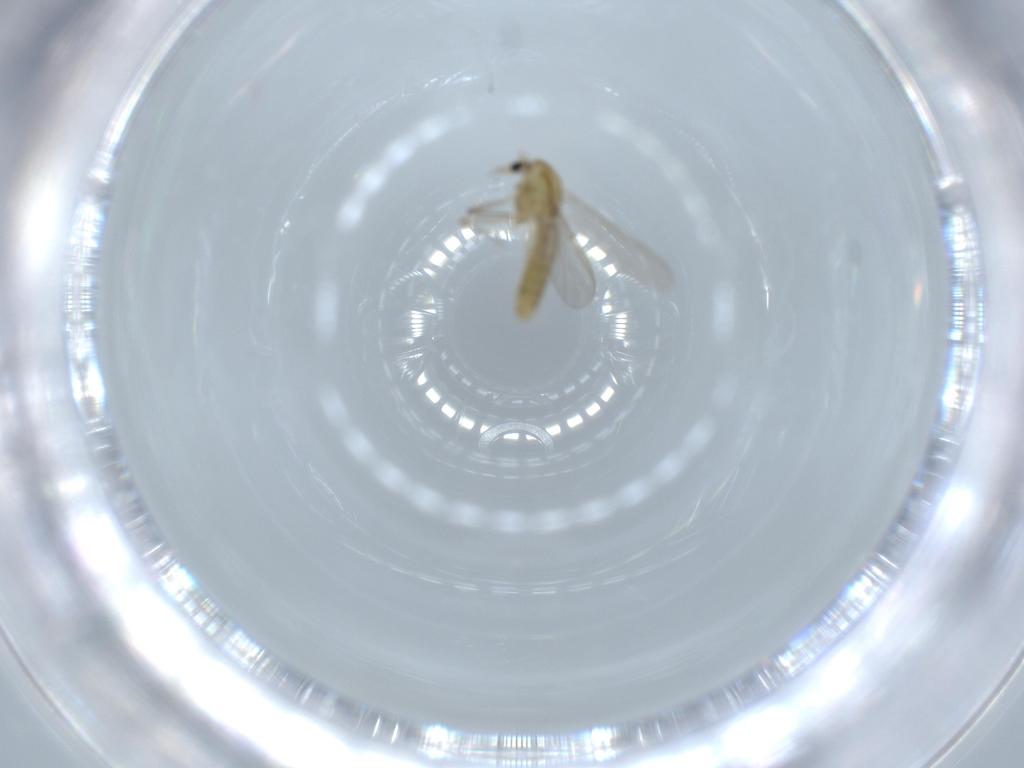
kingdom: Animalia
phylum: Arthropoda
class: Insecta
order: Diptera
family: Chironomidae
